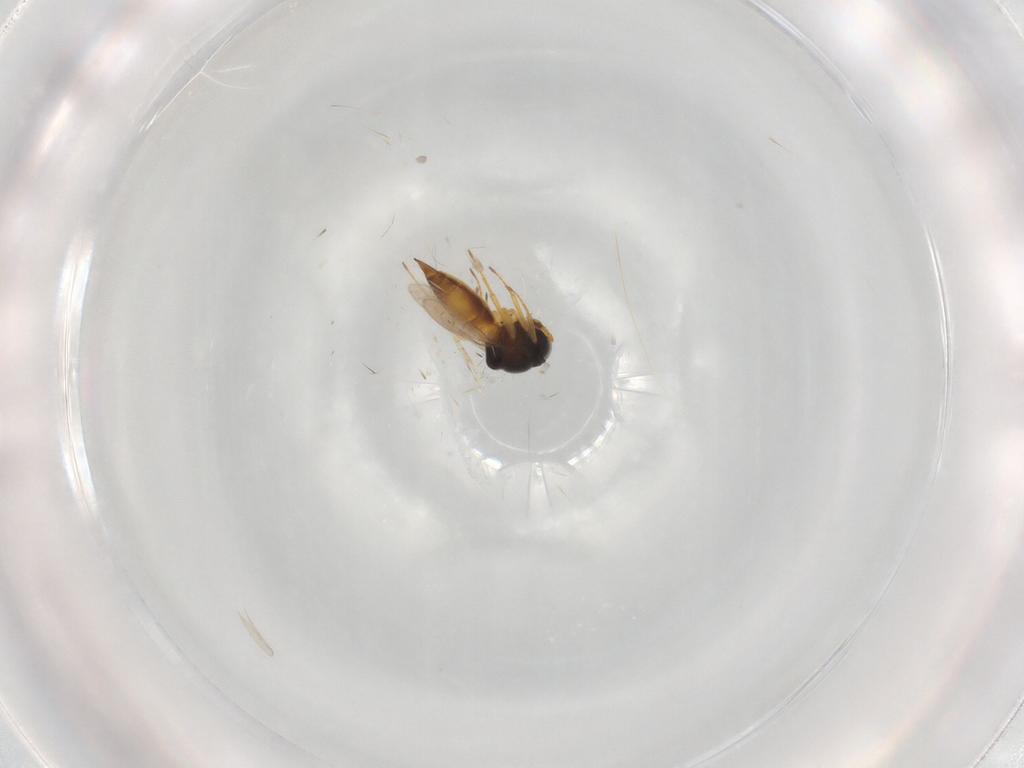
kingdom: Animalia
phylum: Arthropoda
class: Insecta
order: Hymenoptera
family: Scelionidae
